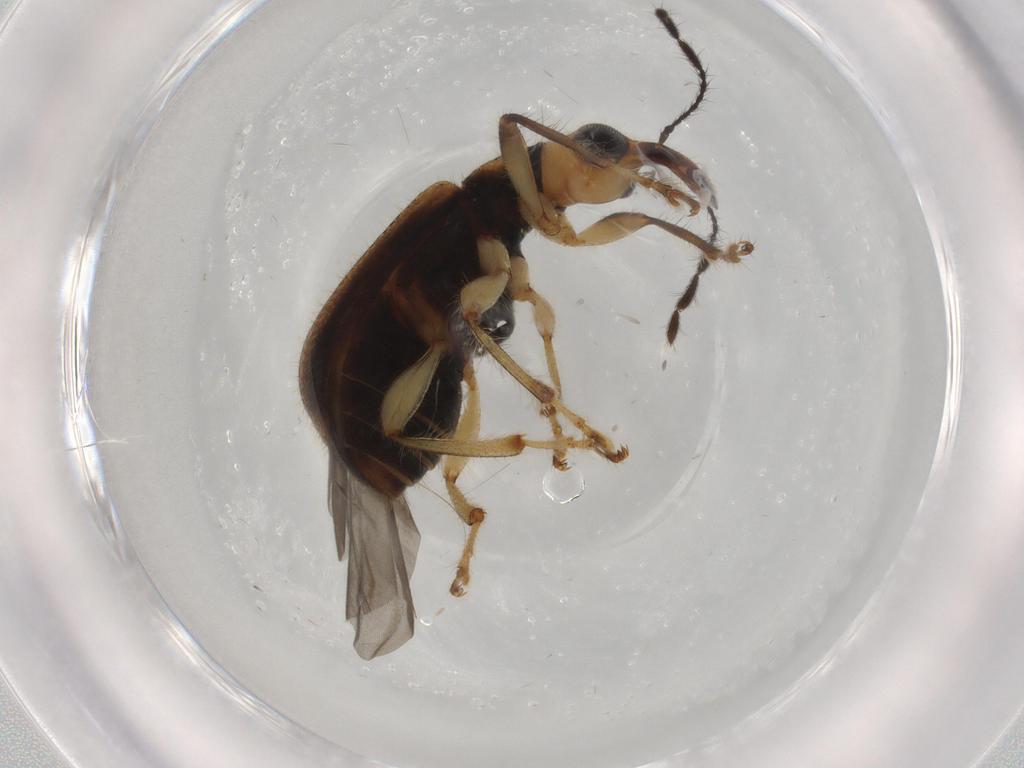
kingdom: Animalia
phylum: Arthropoda
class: Insecta
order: Coleoptera
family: Attelabidae
